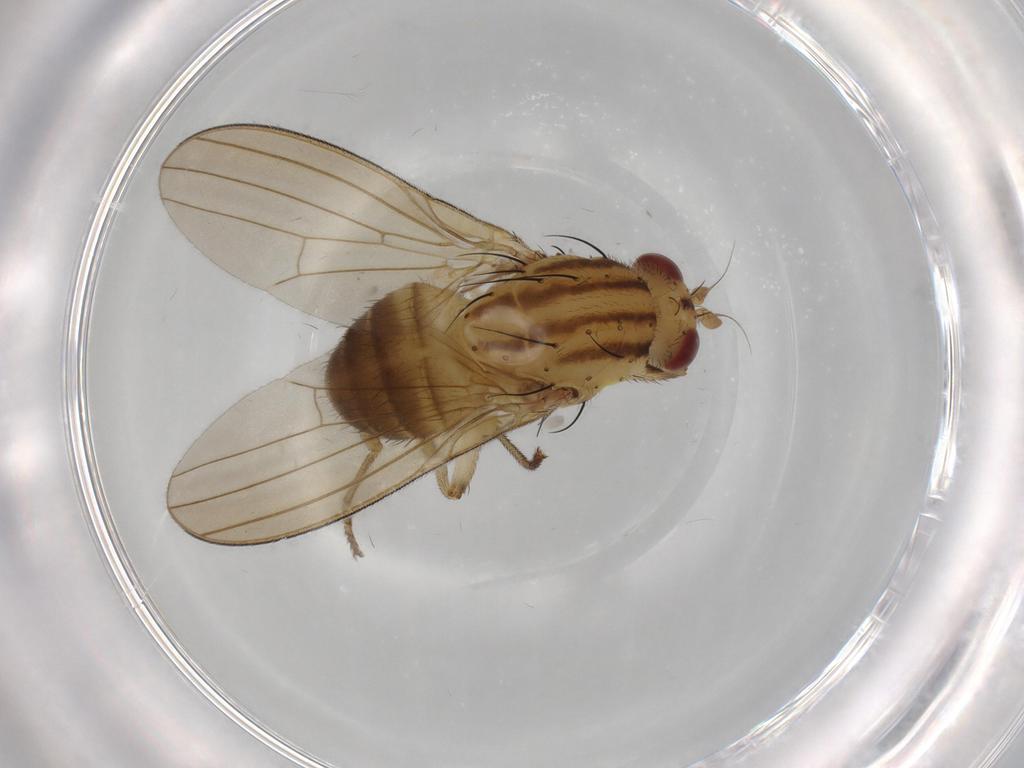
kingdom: Animalia
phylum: Arthropoda
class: Insecta
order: Diptera
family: Lauxaniidae
